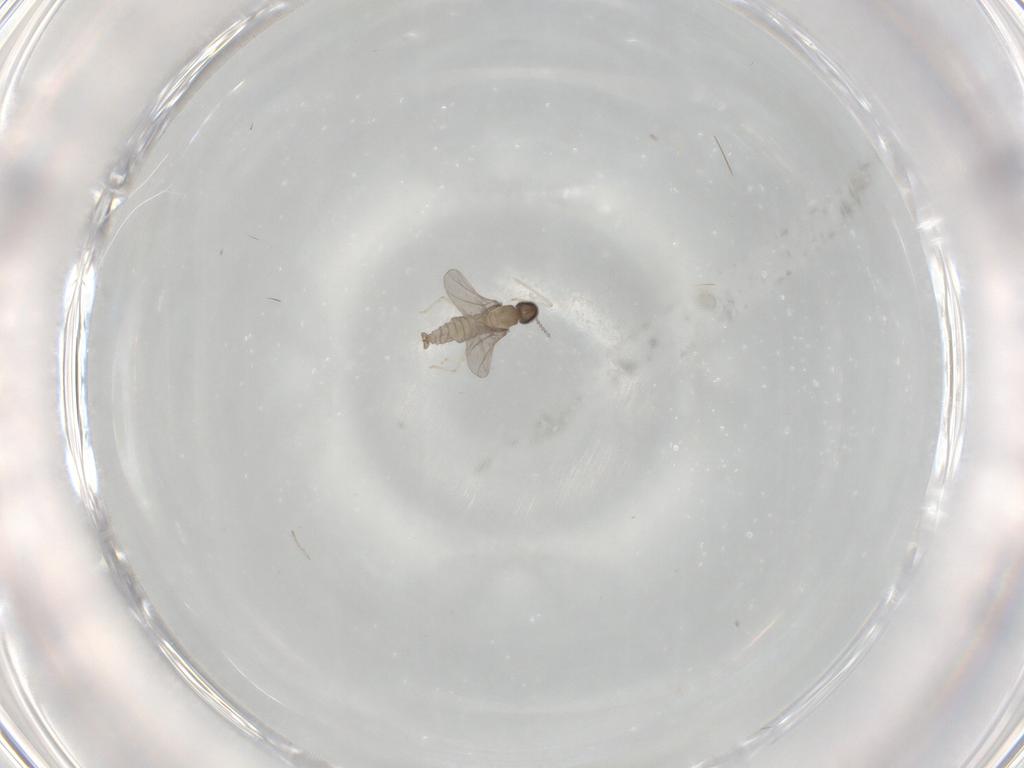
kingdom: Animalia
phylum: Arthropoda
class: Insecta
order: Diptera
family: Cecidomyiidae
